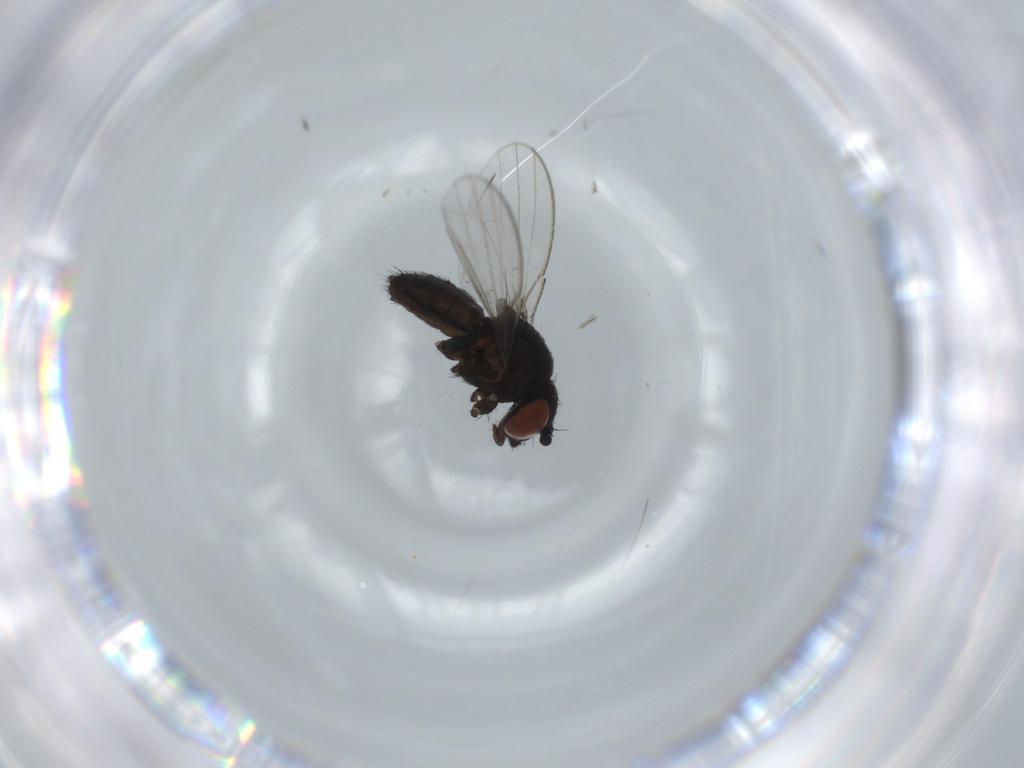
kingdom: Animalia
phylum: Arthropoda
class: Insecta
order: Diptera
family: Milichiidae
